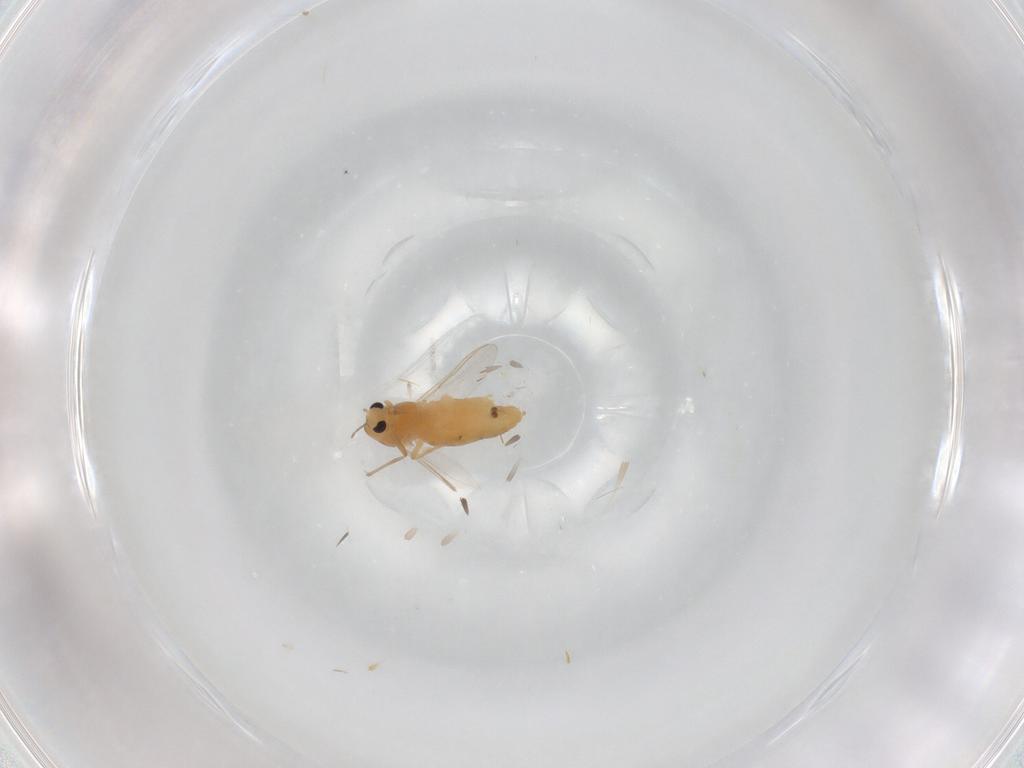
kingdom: Animalia
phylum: Arthropoda
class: Insecta
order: Diptera
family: Chironomidae
